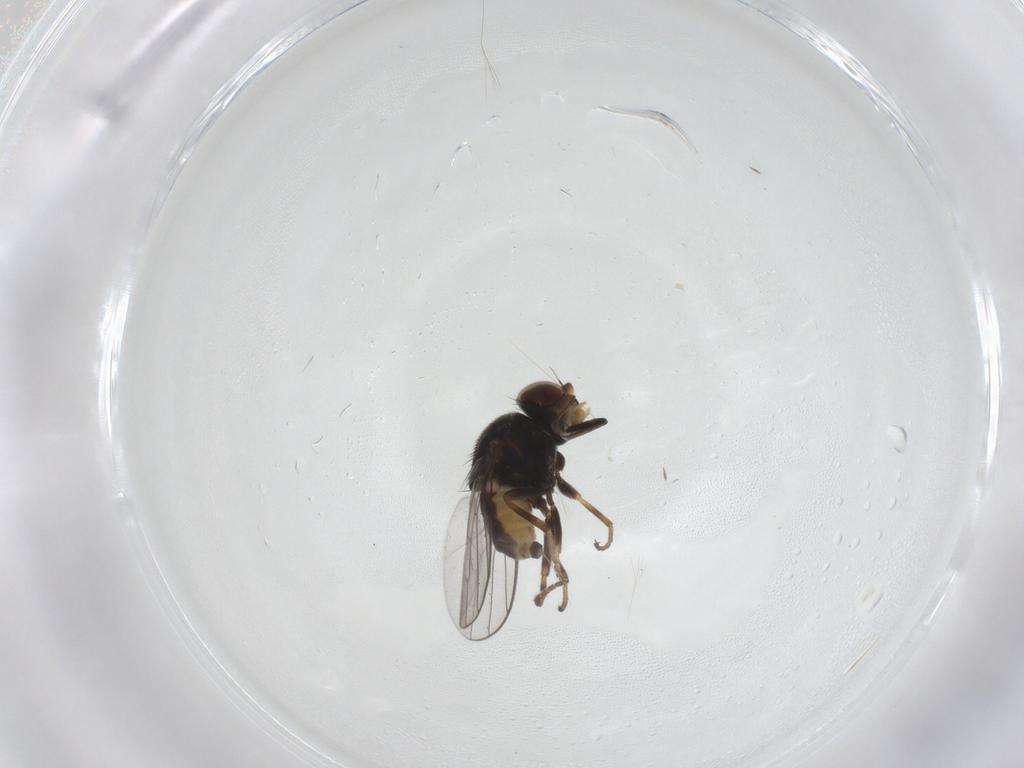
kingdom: Animalia
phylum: Arthropoda
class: Insecta
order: Diptera
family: Chloropidae
